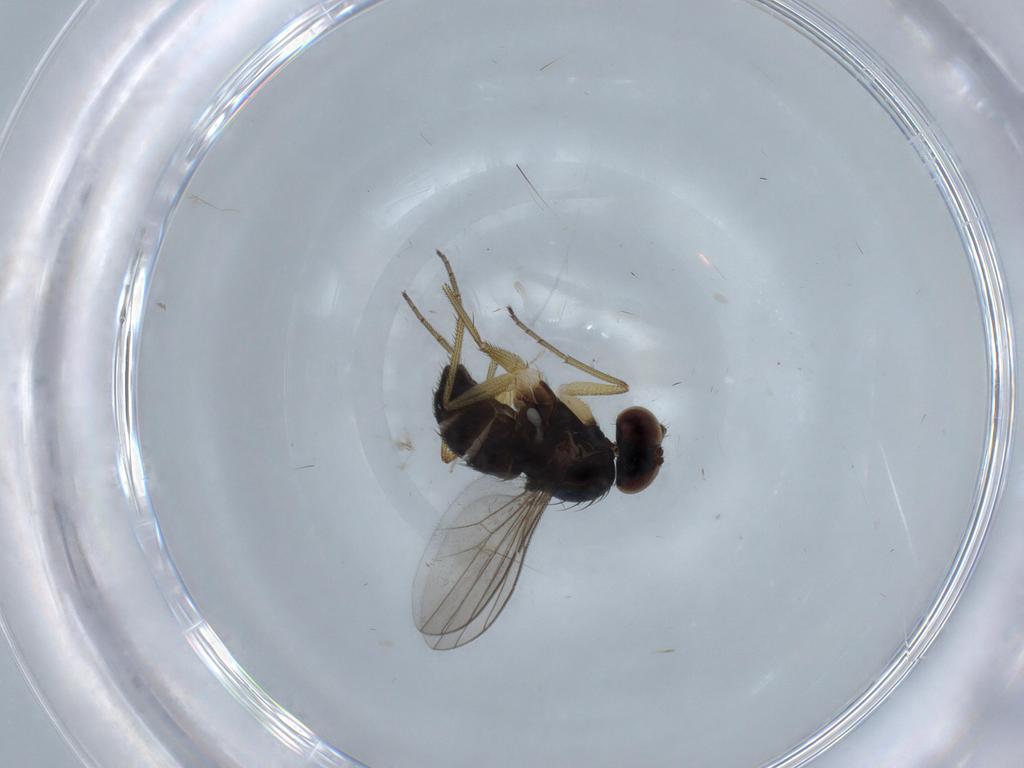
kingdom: Animalia
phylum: Arthropoda
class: Insecta
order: Diptera
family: Dolichopodidae
